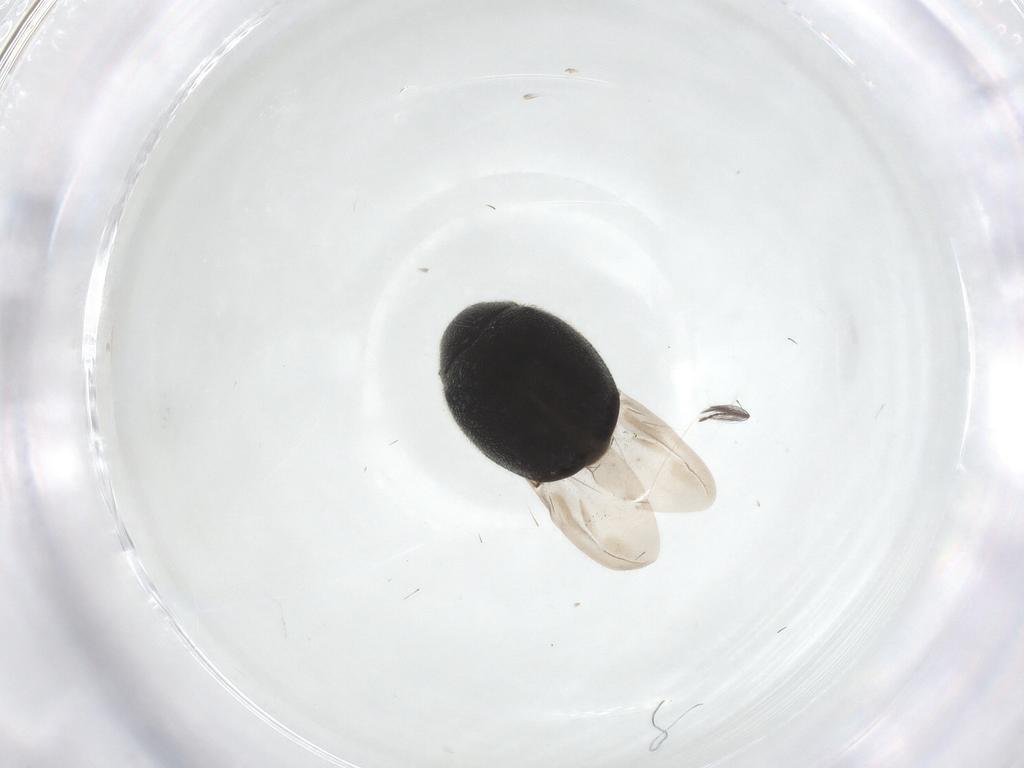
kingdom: Animalia
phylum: Arthropoda
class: Insecta
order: Coleoptera
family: Coccinellidae
